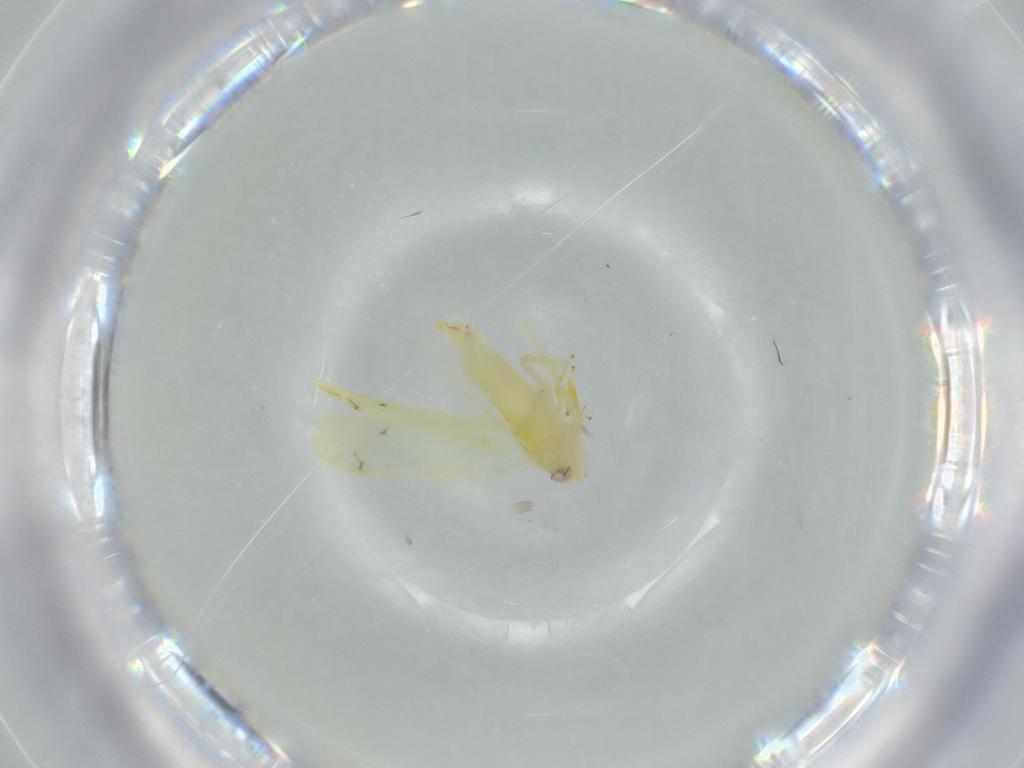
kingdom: Animalia
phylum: Arthropoda
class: Insecta
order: Hemiptera
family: Cicadellidae
